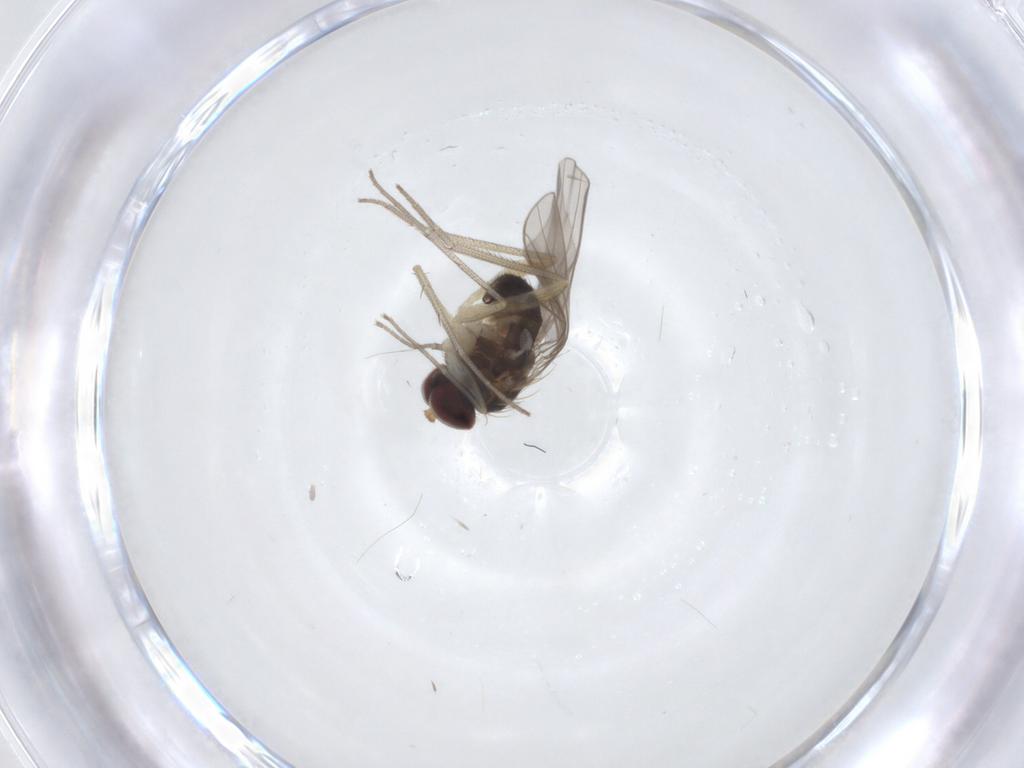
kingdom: Animalia
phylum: Arthropoda
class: Insecta
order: Diptera
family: Dolichopodidae
